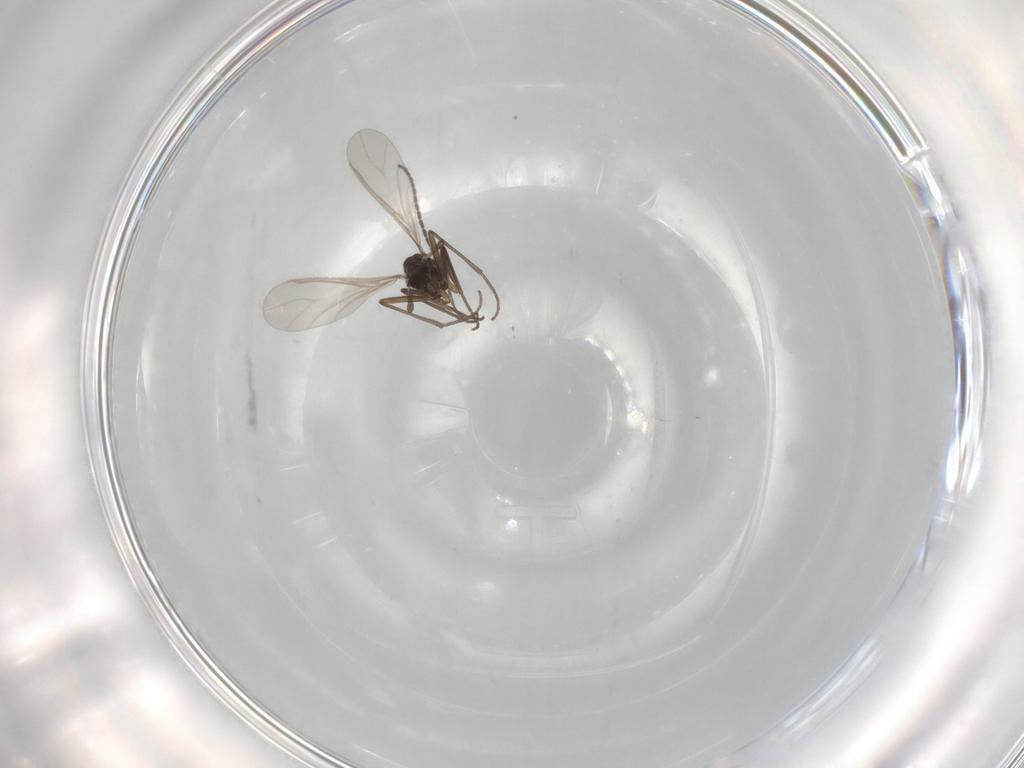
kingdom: Animalia
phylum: Arthropoda
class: Insecta
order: Diptera
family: Sciaridae
